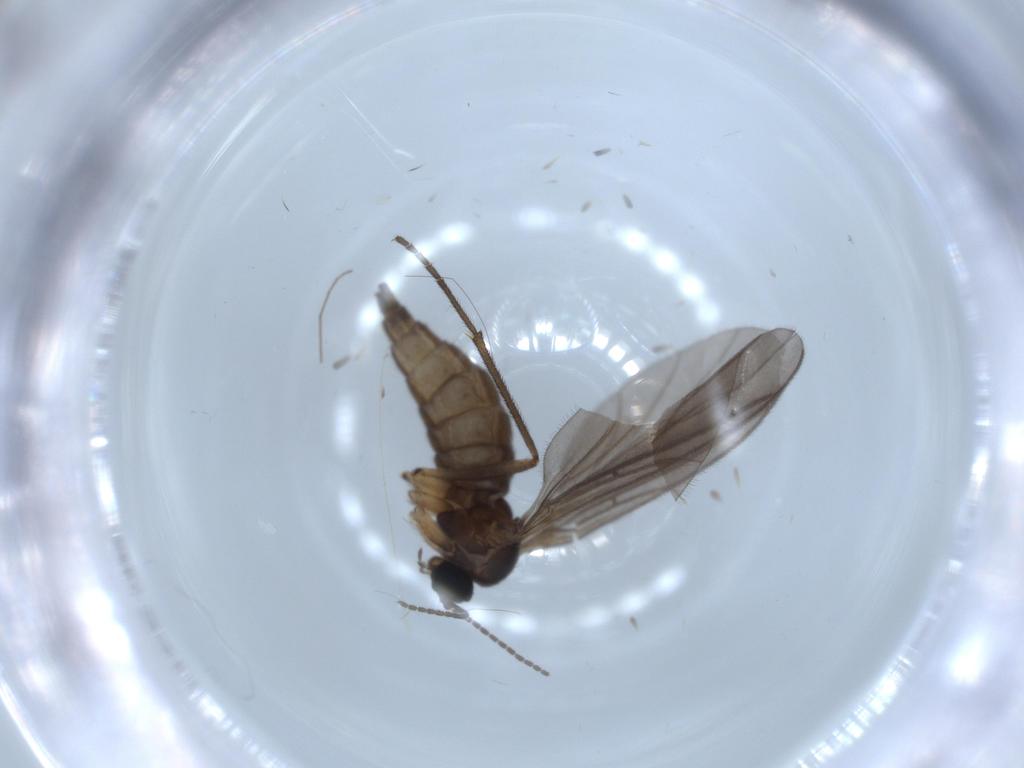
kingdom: Animalia
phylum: Arthropoda
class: Insecta
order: Diptera
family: Sciaridae
